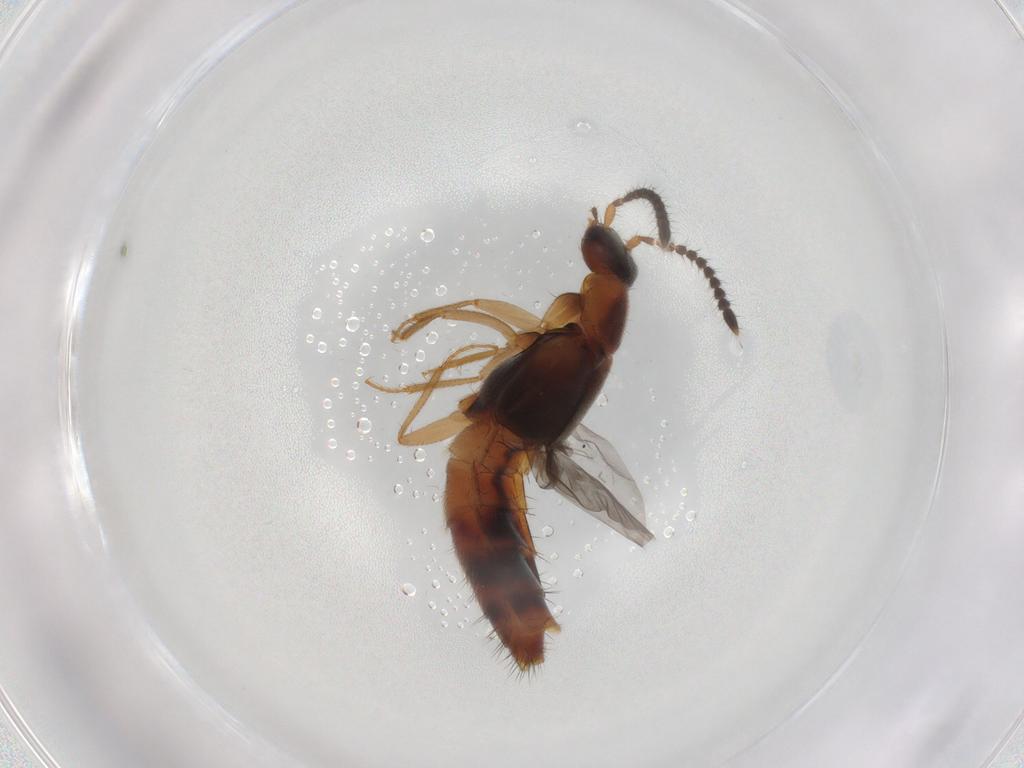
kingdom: Animalia
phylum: Arthropoda
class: Insecta
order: Coleoptera
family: Staphylinidae
